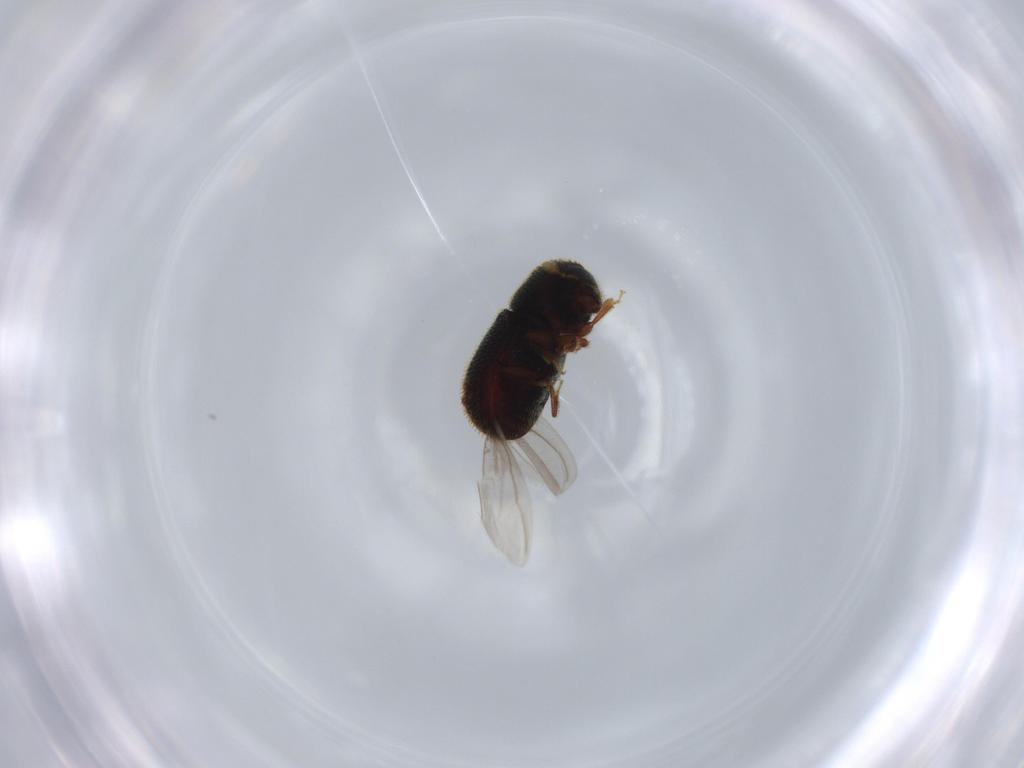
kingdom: Animalia
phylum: Arthropoda
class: Insecta
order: Coleoptera
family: Curculionidae
